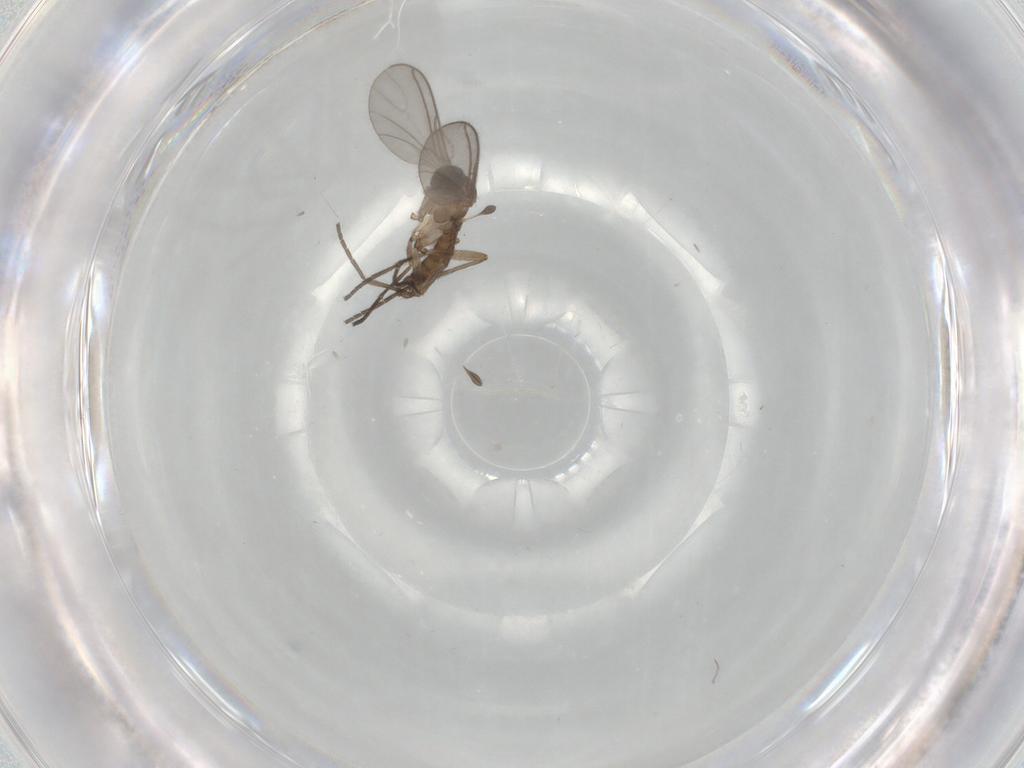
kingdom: Animalia
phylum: Arthropoda
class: Insecta
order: Diptera
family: Sciaridae
